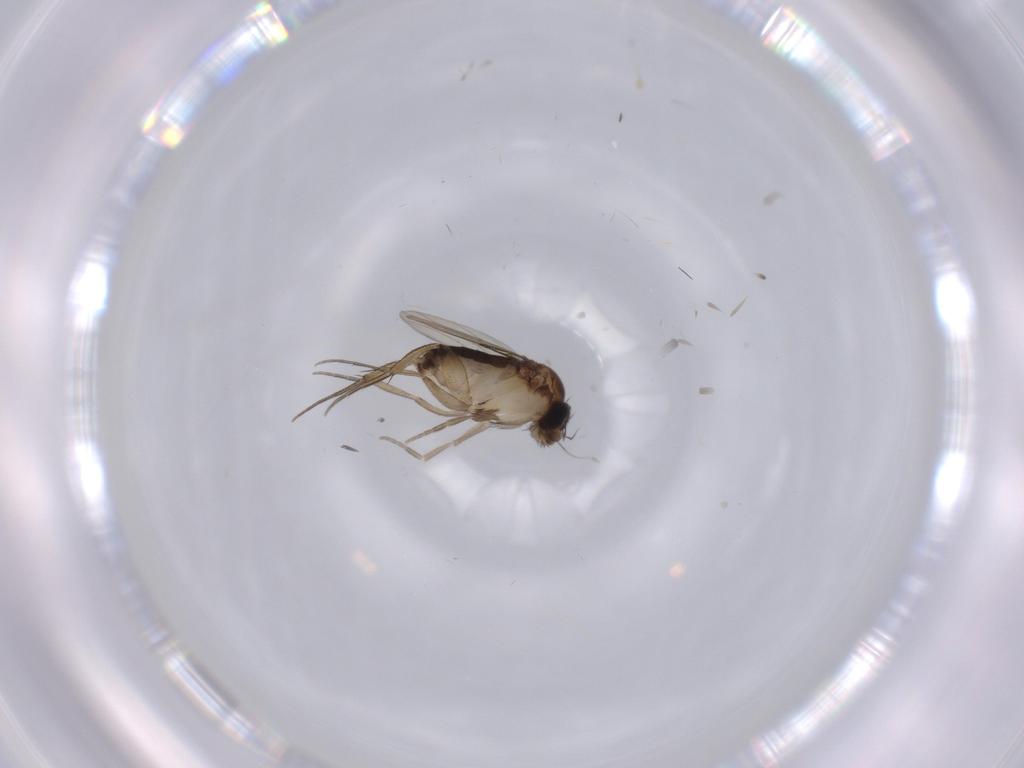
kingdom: Animalia
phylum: Arthropoda
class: Insecta
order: Diptera
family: Phoridae
